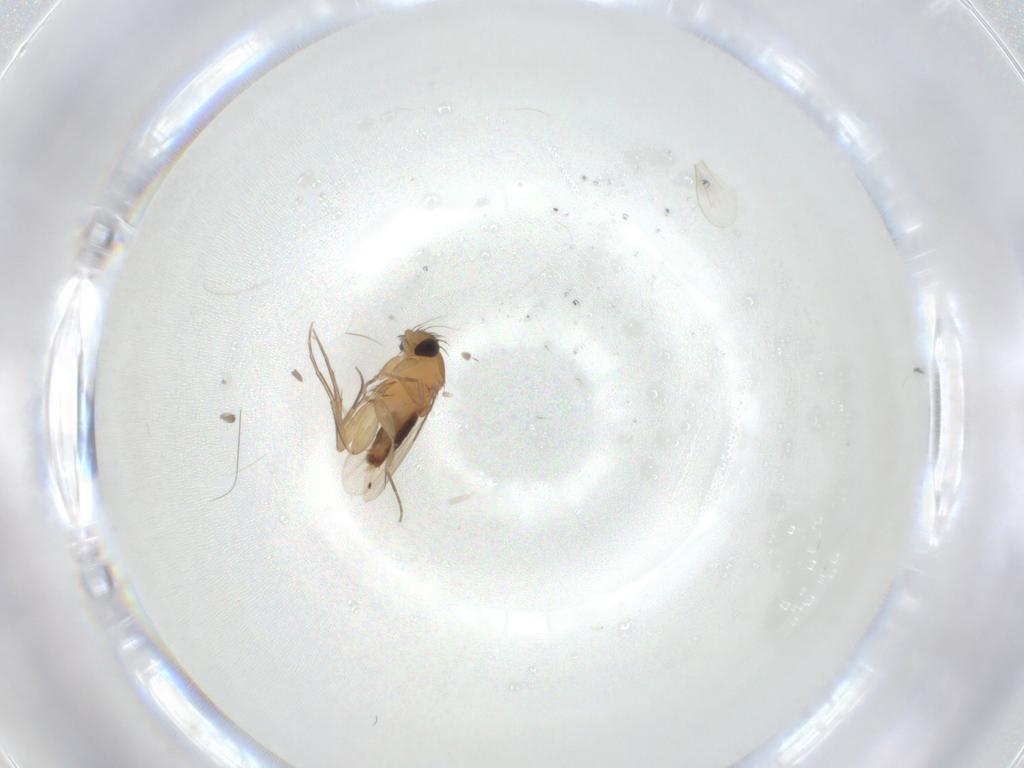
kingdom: Animalia
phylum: Arthropoda
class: Insecta
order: Diptera
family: Phoridae
